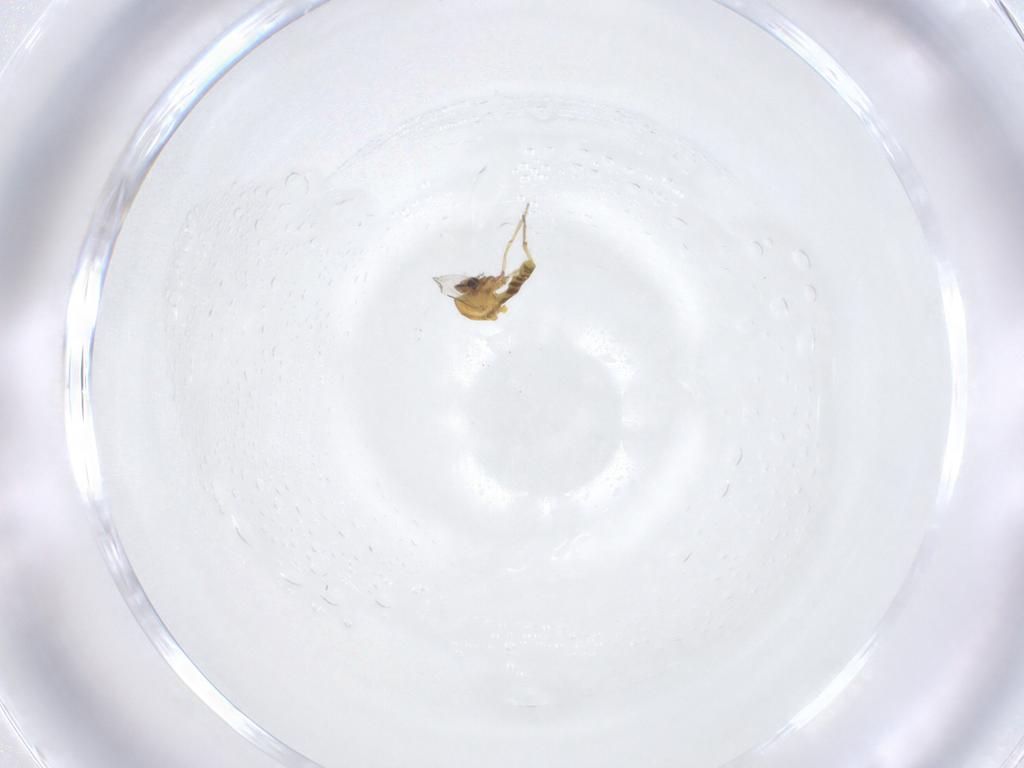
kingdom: Animalia
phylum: Arthropoda
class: Insecta
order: Diptera
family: Ceratopogonidae
